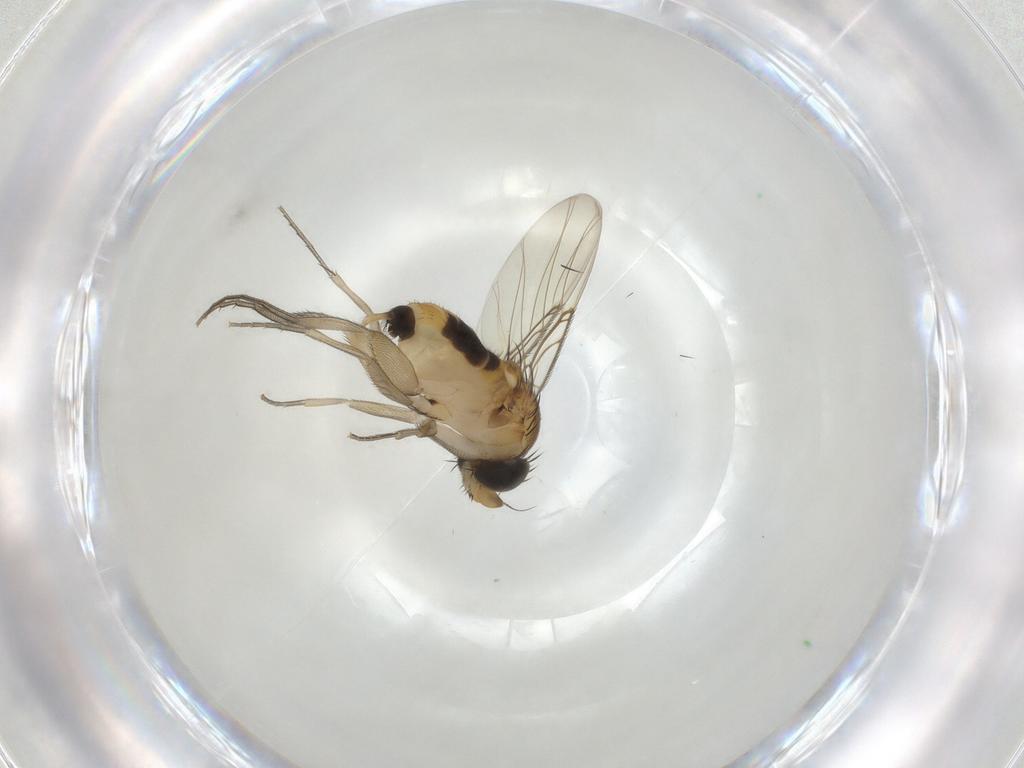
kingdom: Animalia
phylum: Arthropoda
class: Insecta
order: Diptera
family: Phoridae
